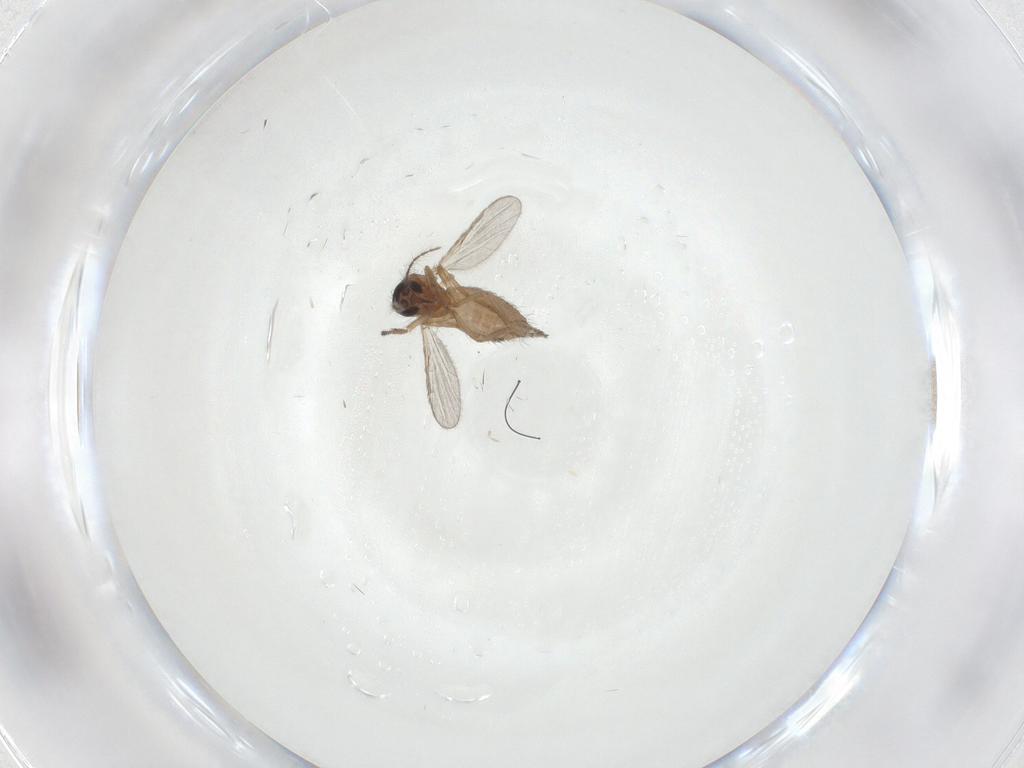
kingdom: Animalia
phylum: Arthropoda
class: Insecta
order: Diptera
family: Ceratopogonidae
